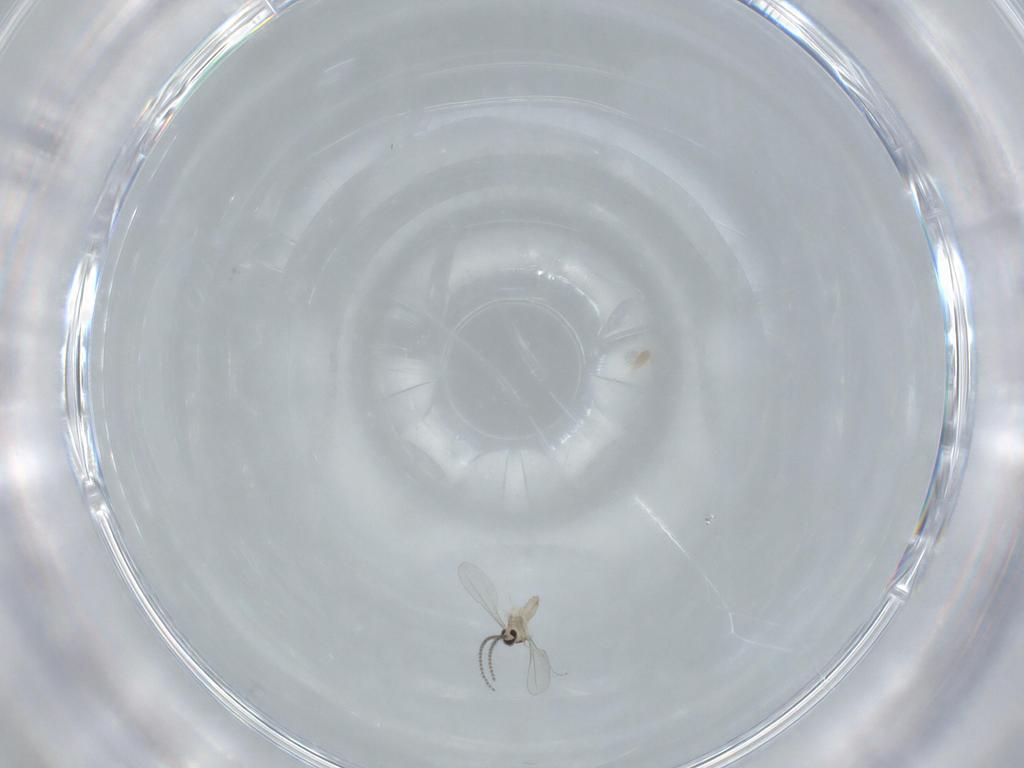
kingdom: Animalia
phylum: Arthropoda
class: Insecta
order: Diptera
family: Cecidomyiidae
